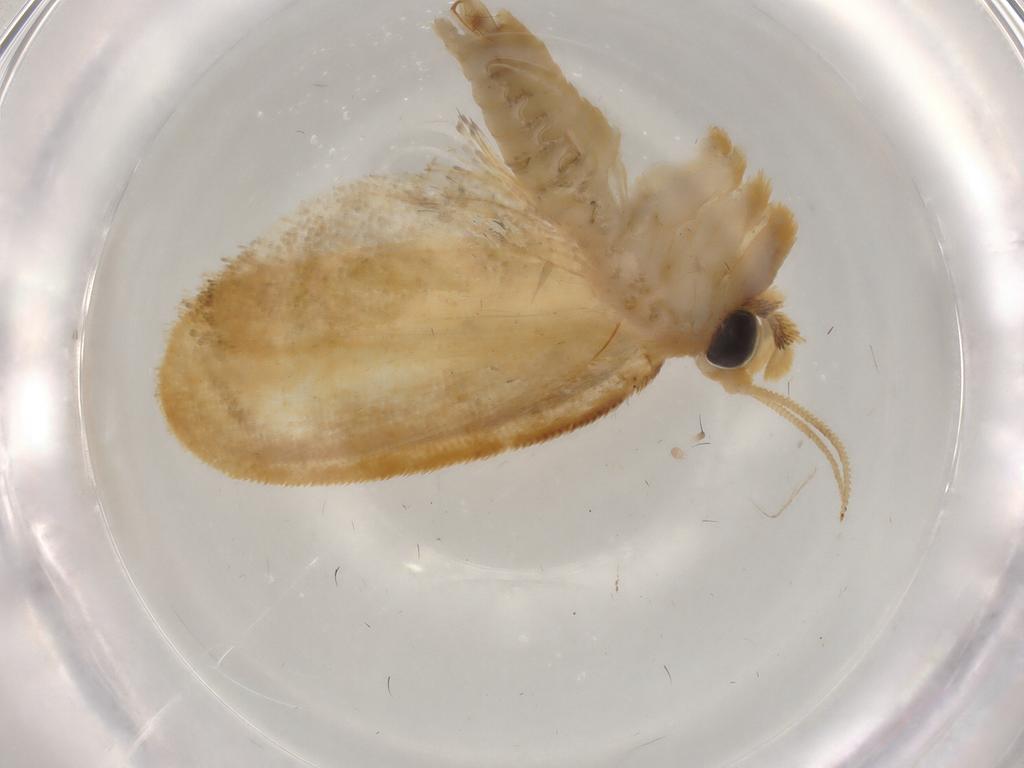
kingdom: Animalia
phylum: Arthropoda
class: Insecta
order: Lepidoptera
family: Psychidae
